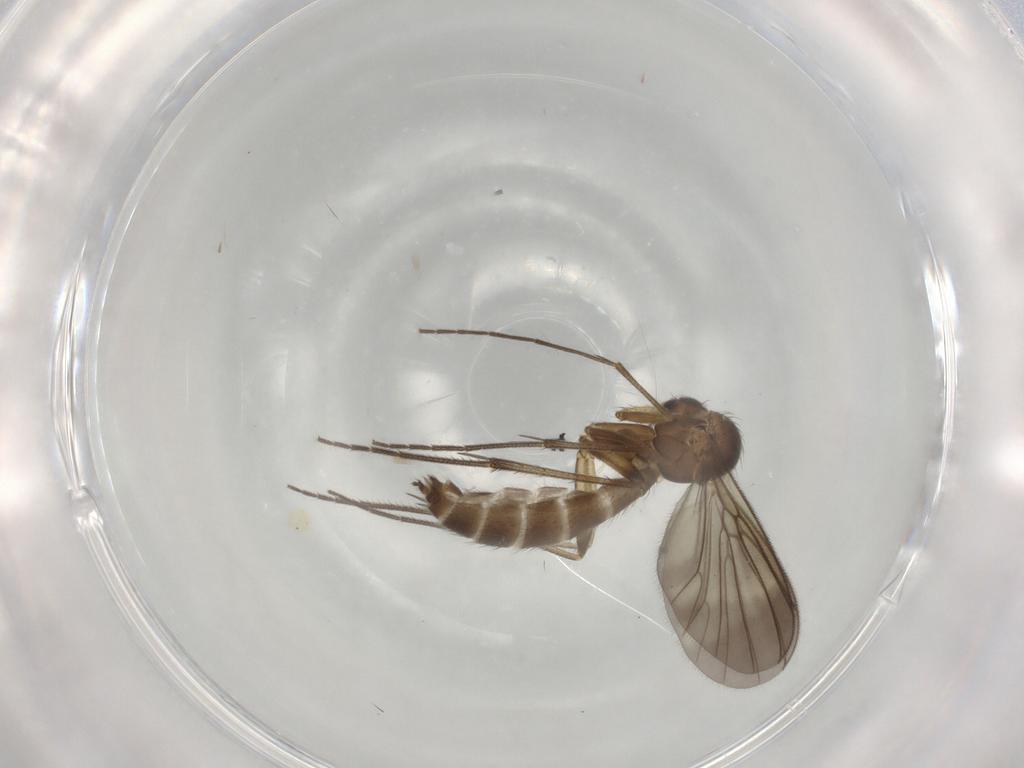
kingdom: Animalia
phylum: Arthropoda
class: Insecta
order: Diptera
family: Mycetophilidae
